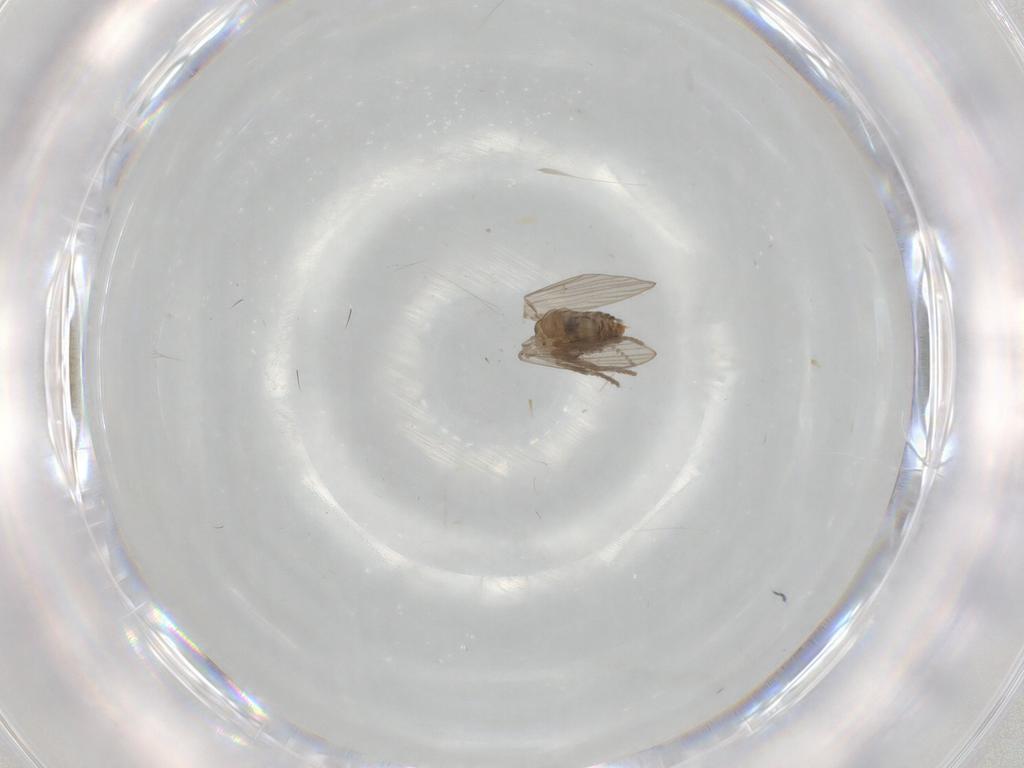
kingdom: Animalia
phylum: Arthropoda
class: Insecta
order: Diptera
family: Psychodidae
